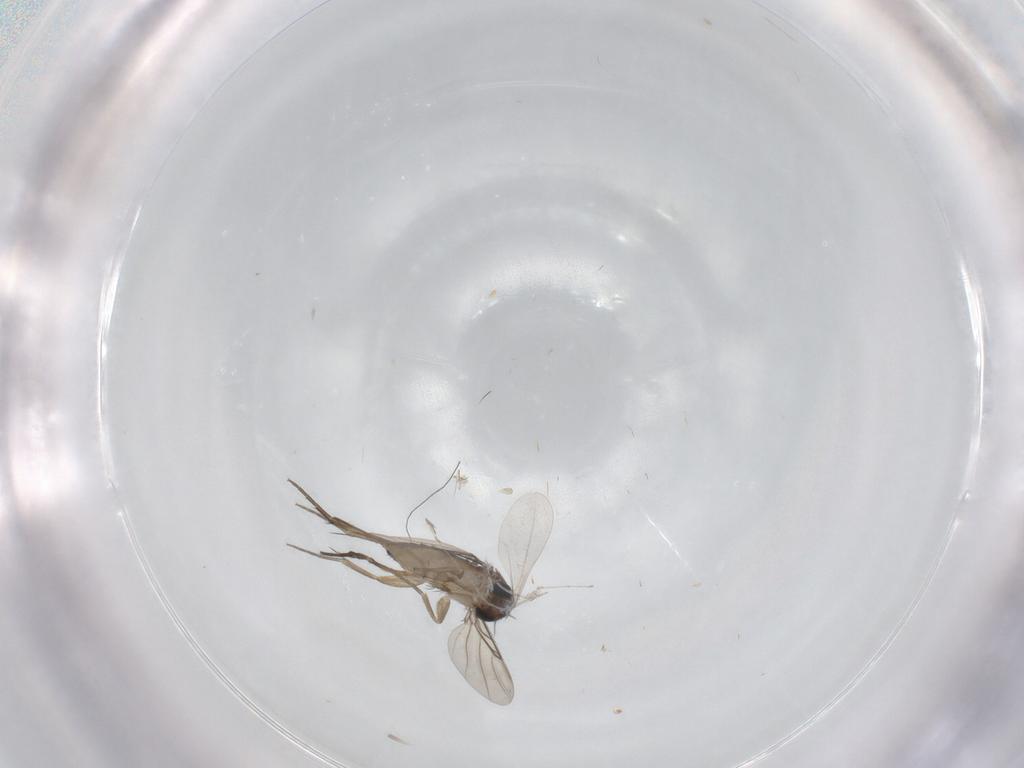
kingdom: Animalia
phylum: Arthropoda
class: Insecta
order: Diptera
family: Phoridae
